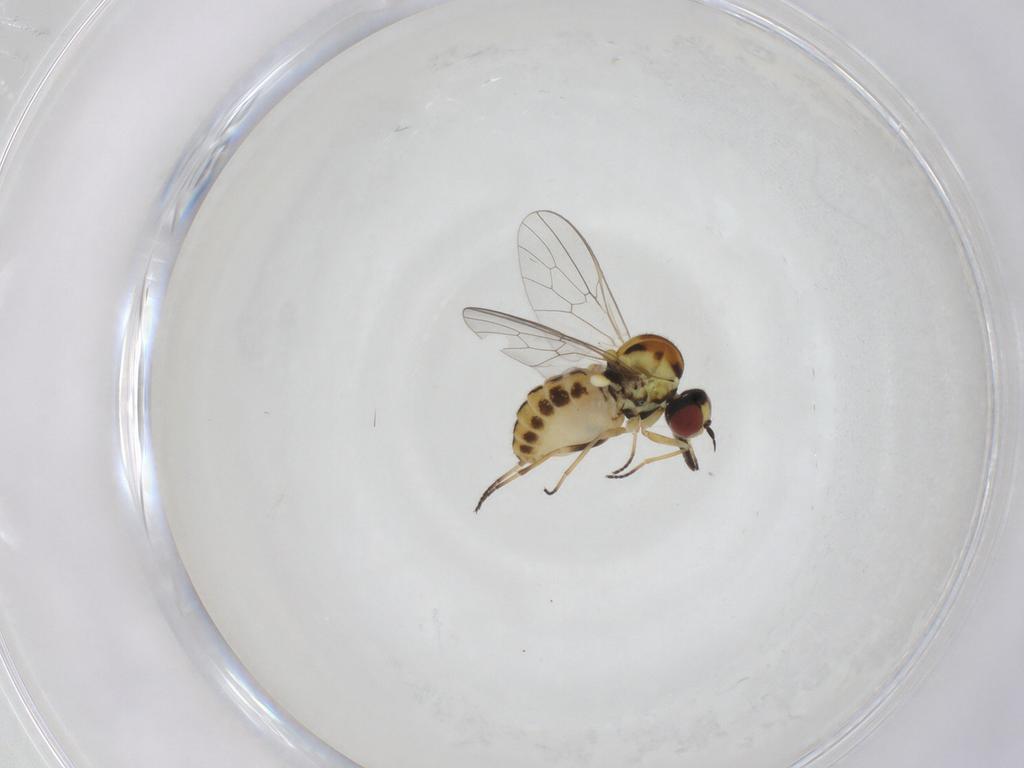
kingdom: Animalia
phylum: Arthropoda
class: Insecta
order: Diptera
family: Bombyliidae
